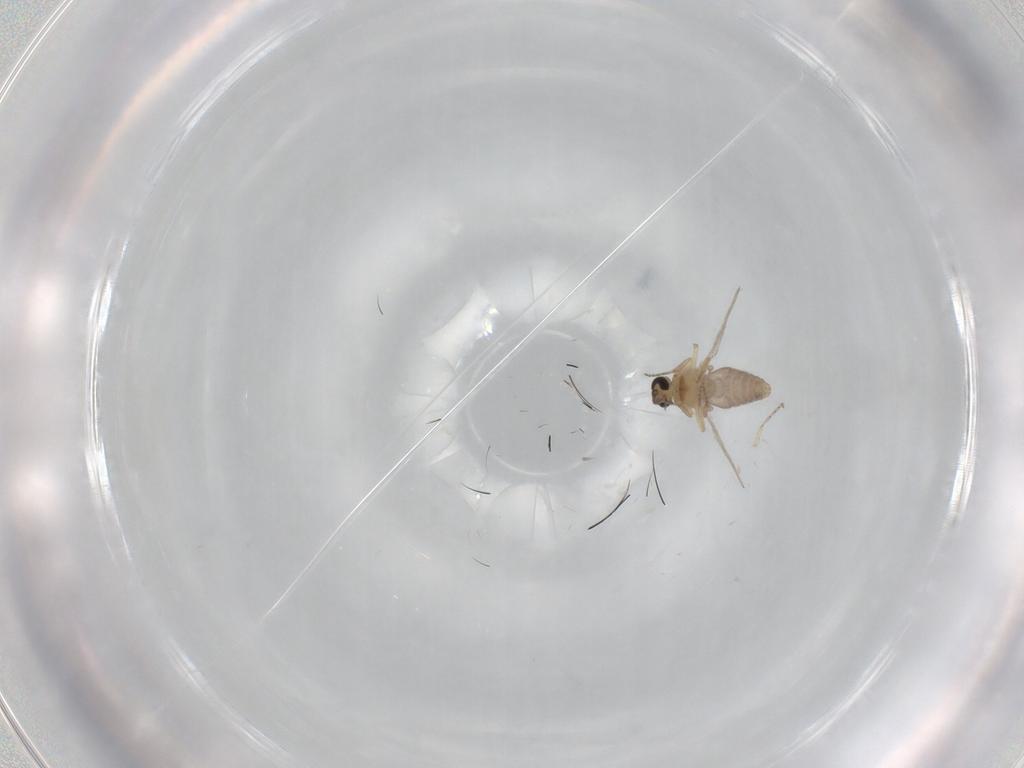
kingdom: Animalia
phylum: Arthropoda
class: Insecta
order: Diptera
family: Ceratopogonidae
